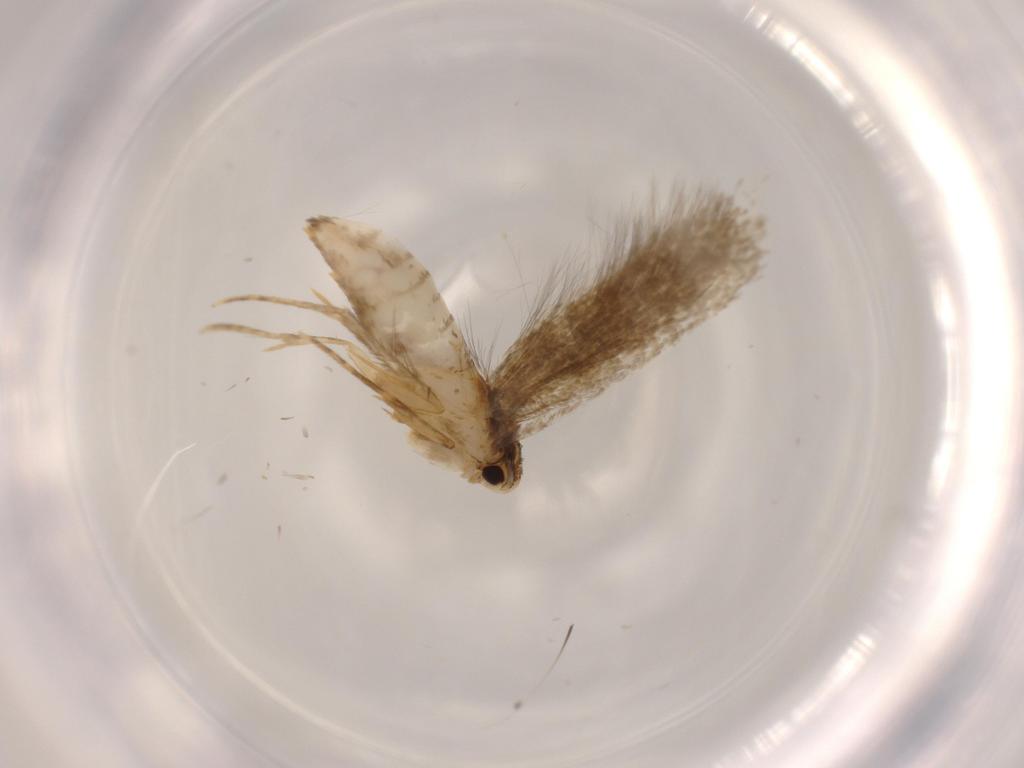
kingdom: Animalia
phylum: Arthropoda
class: Insecta
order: Lepidoptera
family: Tineidae
